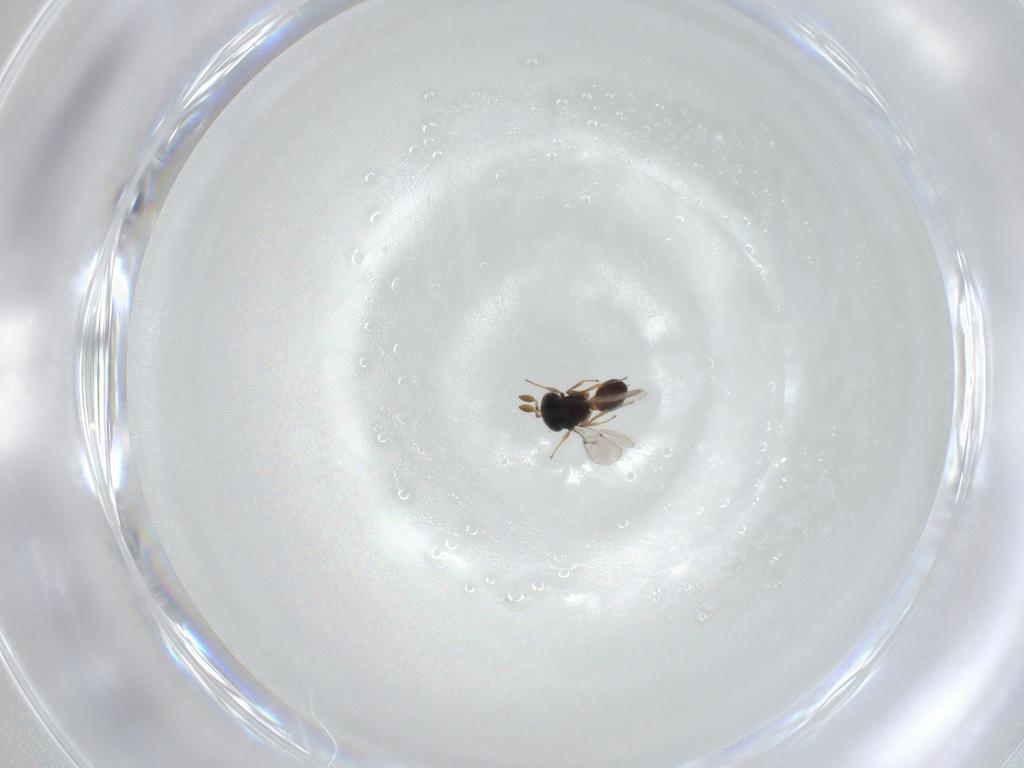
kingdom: Animalia
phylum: Arthropoda
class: Insecta
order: Hymenoptera
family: Scelionidae
